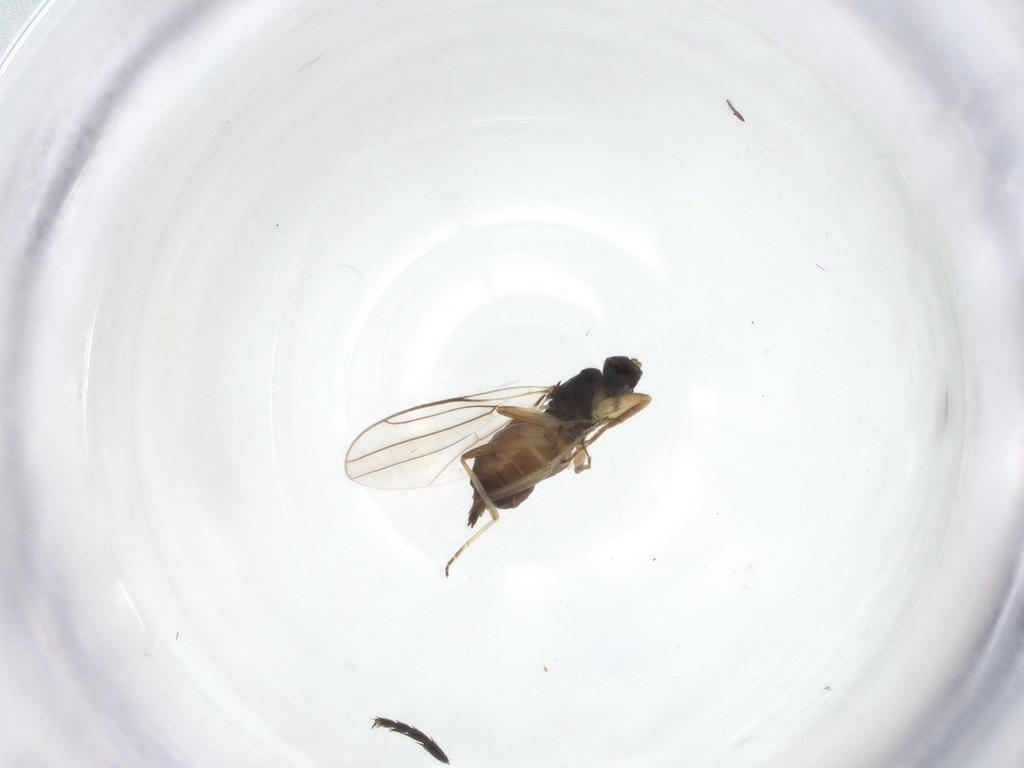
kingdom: Animalia
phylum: Arthropoda
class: Insecta
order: Diptera
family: Hybotidae
